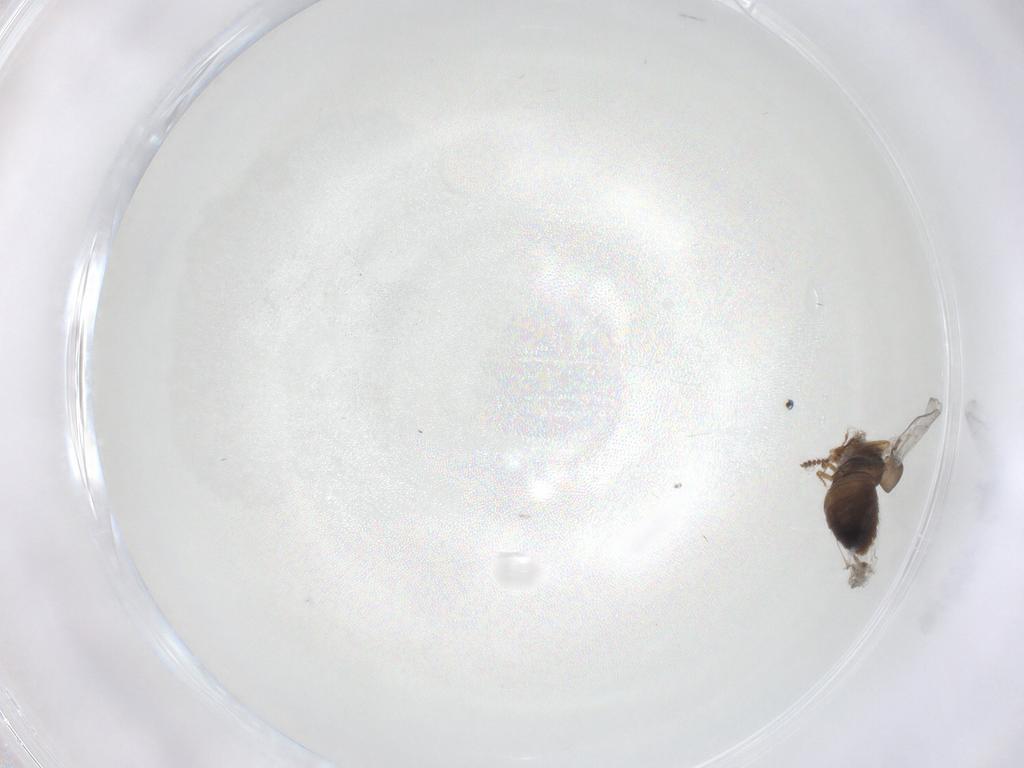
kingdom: Animalia
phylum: Arthropoda
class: Insecta
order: Coleoptera
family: Staphylinidae
